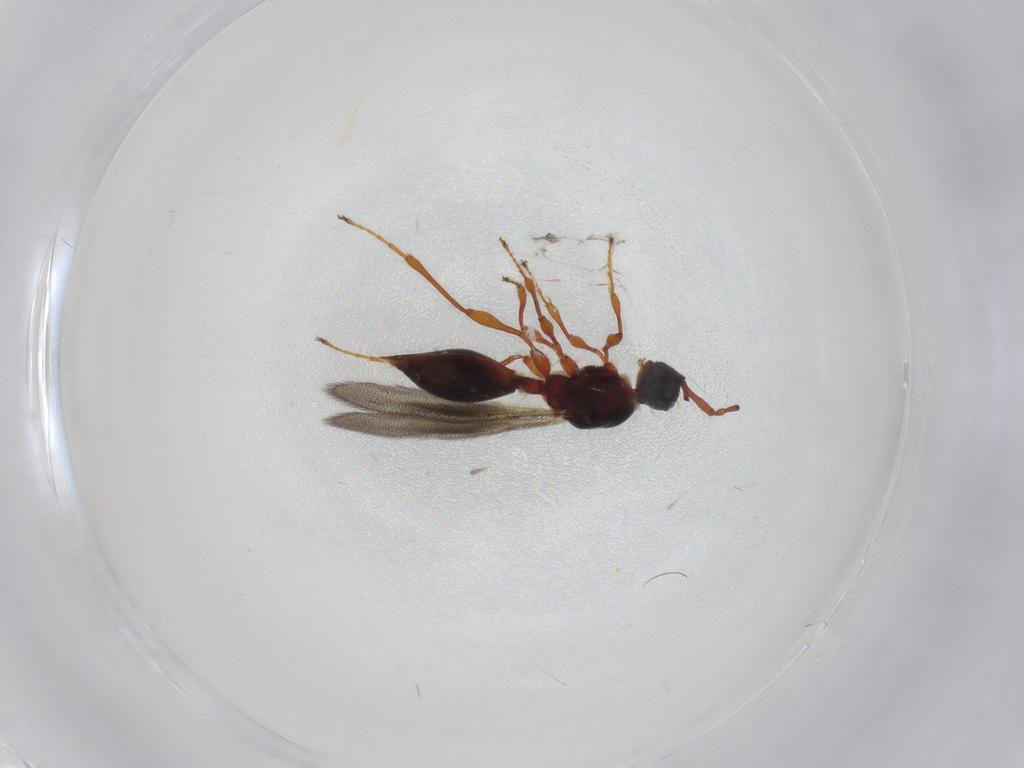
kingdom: Animalia
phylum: Arthropoda
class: Insecta
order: Hymenoptera
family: Diapriidae
